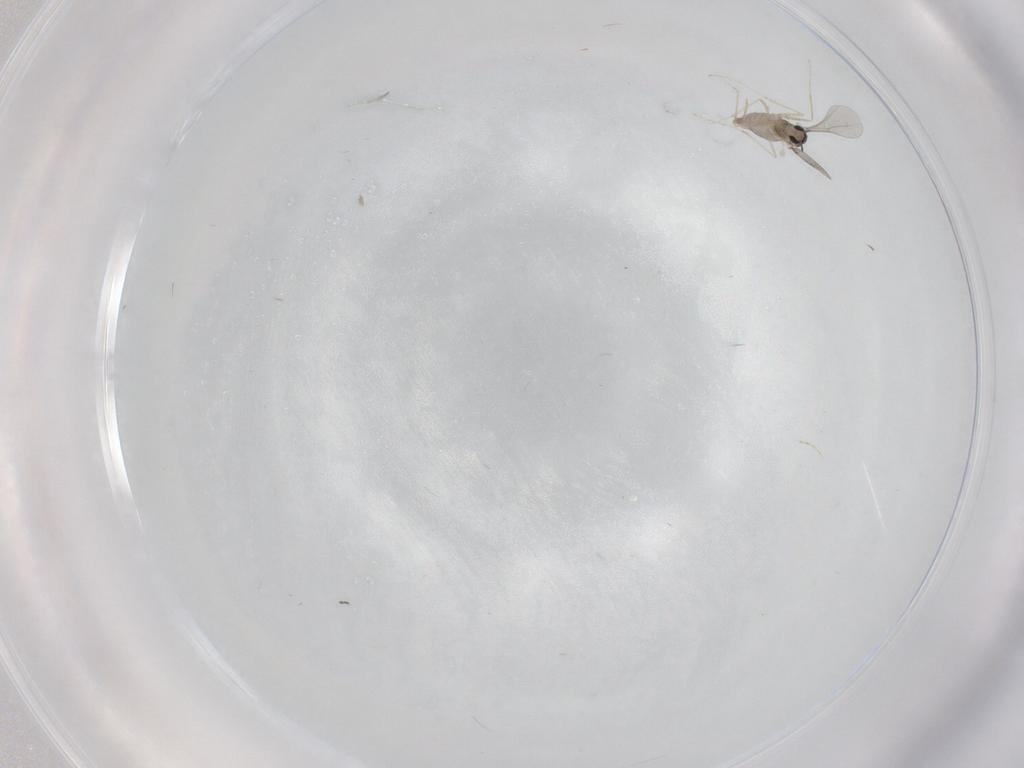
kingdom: Animalia
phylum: Arthropoda
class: Insecta
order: Diptera
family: Sciaridae
